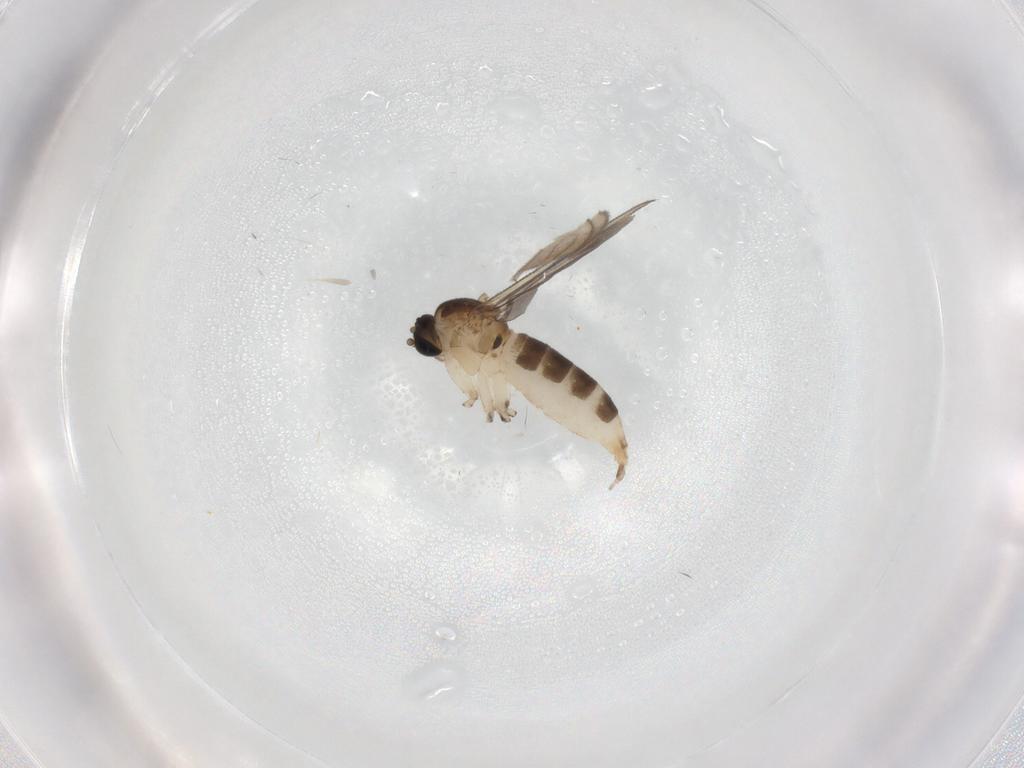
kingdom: Animalia
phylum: Arthropoda
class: Insecta
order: Diptera
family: Sciaridae
